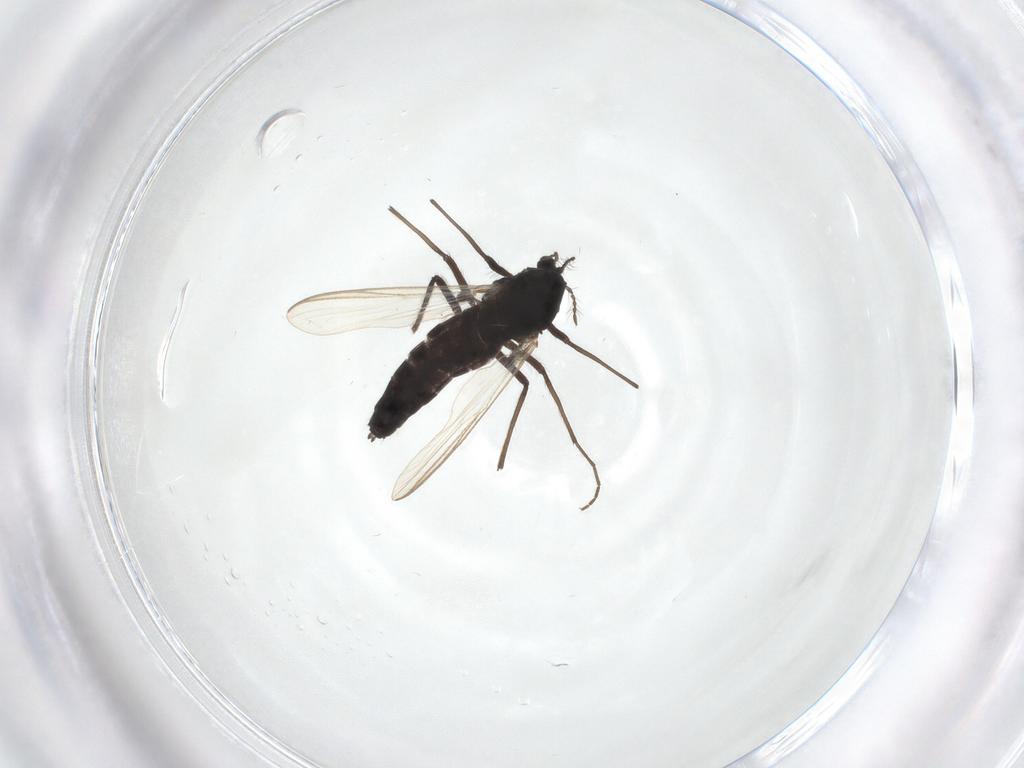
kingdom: Animalia
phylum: Arthropoda
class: Insecta
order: Diptera
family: Chironomidae
